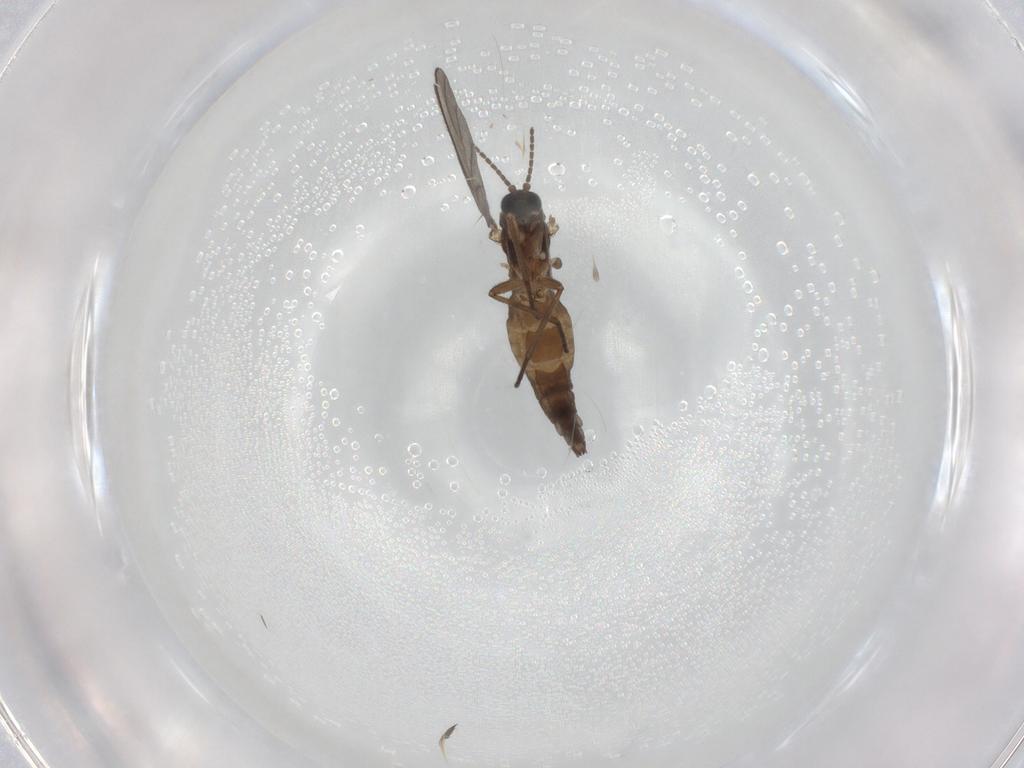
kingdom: Animalia
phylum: Arthropoda
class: Insecta
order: Diptera
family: Sciaridae
